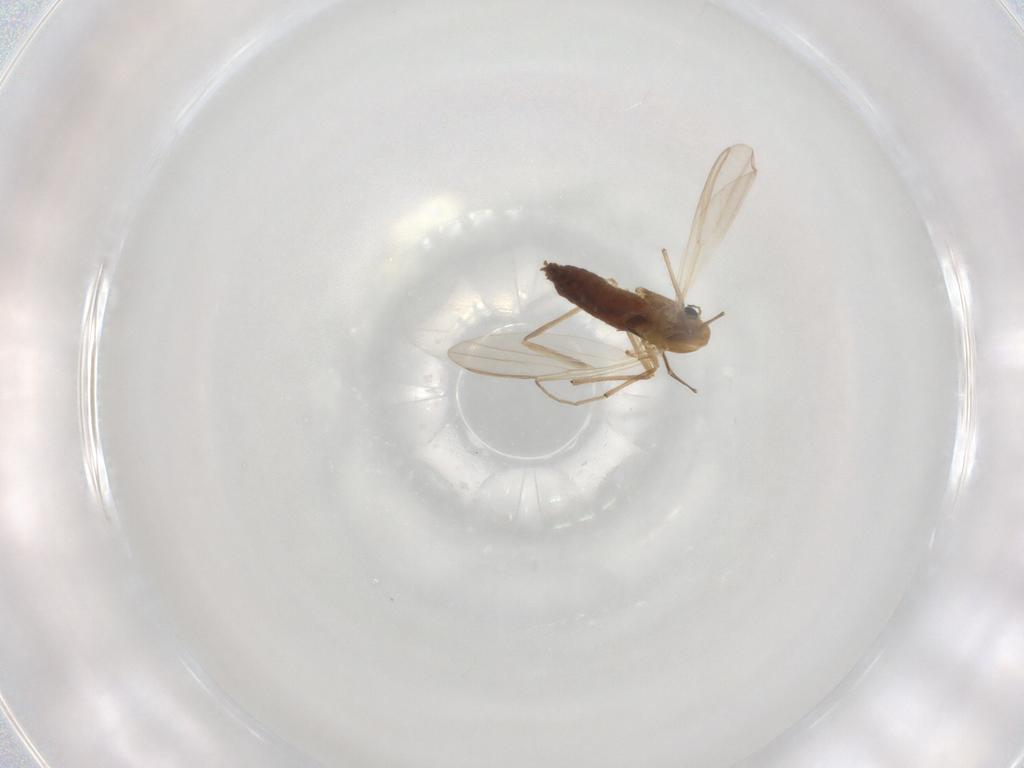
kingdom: Animalia
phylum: Arthropoda
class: Insecta
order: Diptera
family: Chironomidae
